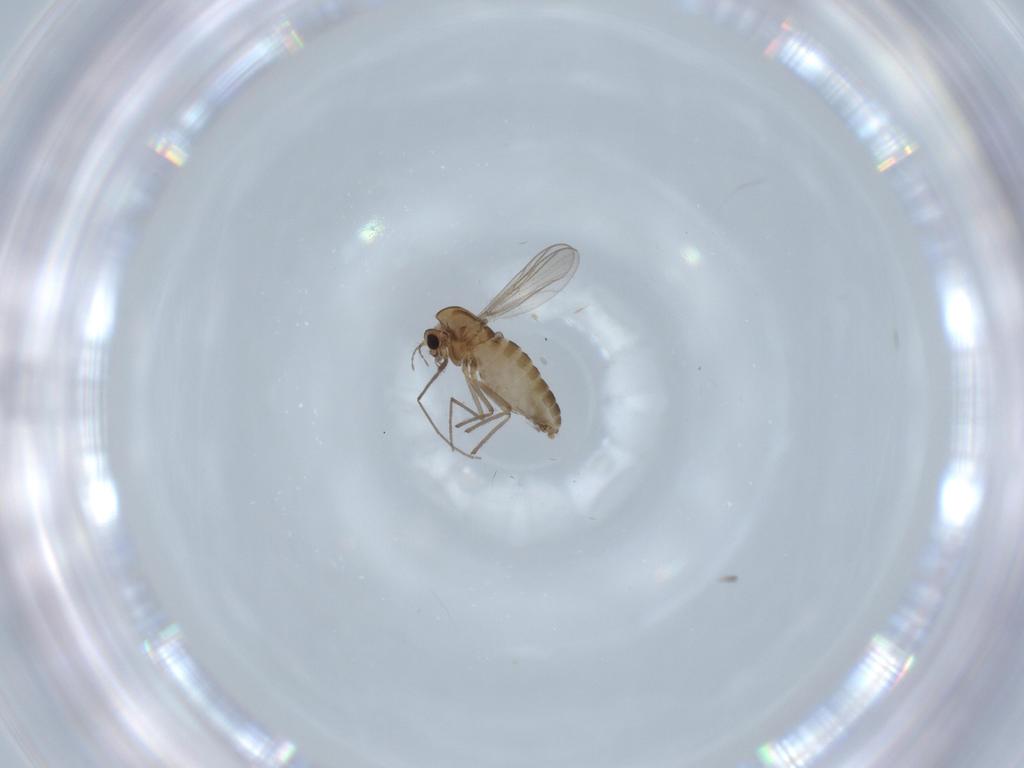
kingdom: Animalia
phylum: Arthropoda
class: Insecta
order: Diptera
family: Chironomidae
